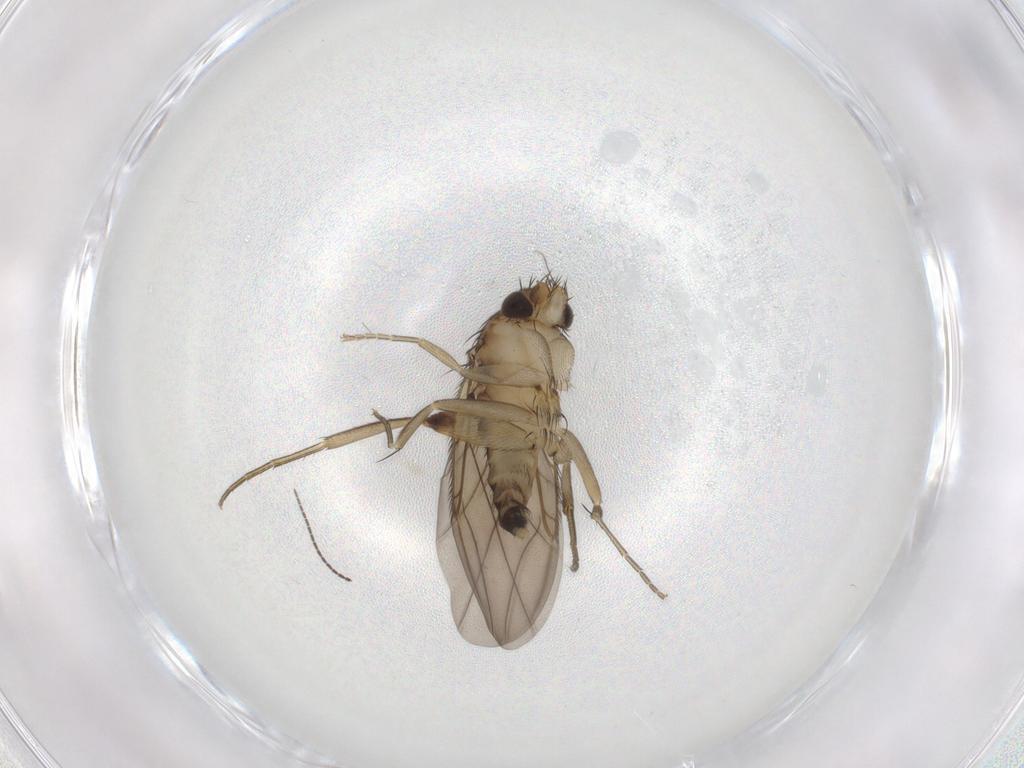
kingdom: Animalia
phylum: Arthropoda
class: Insecta
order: Diptera
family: Phoridae
